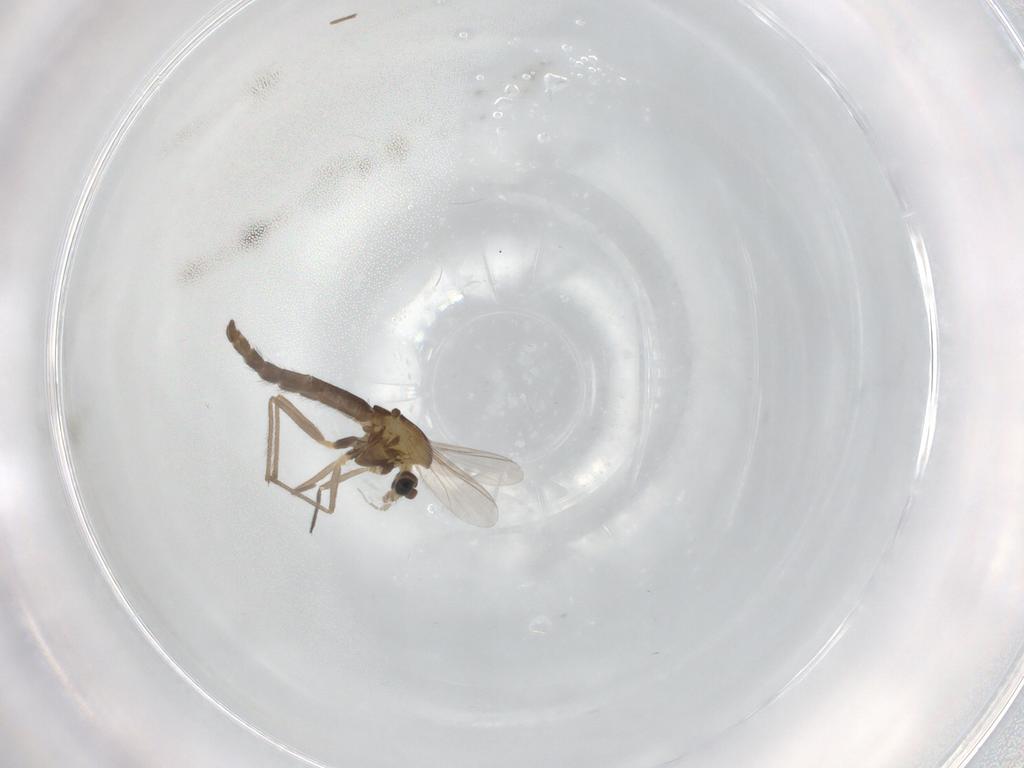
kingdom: Animalia
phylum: Arthropoda
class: Insecta
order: Diptera
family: Chironomidae
